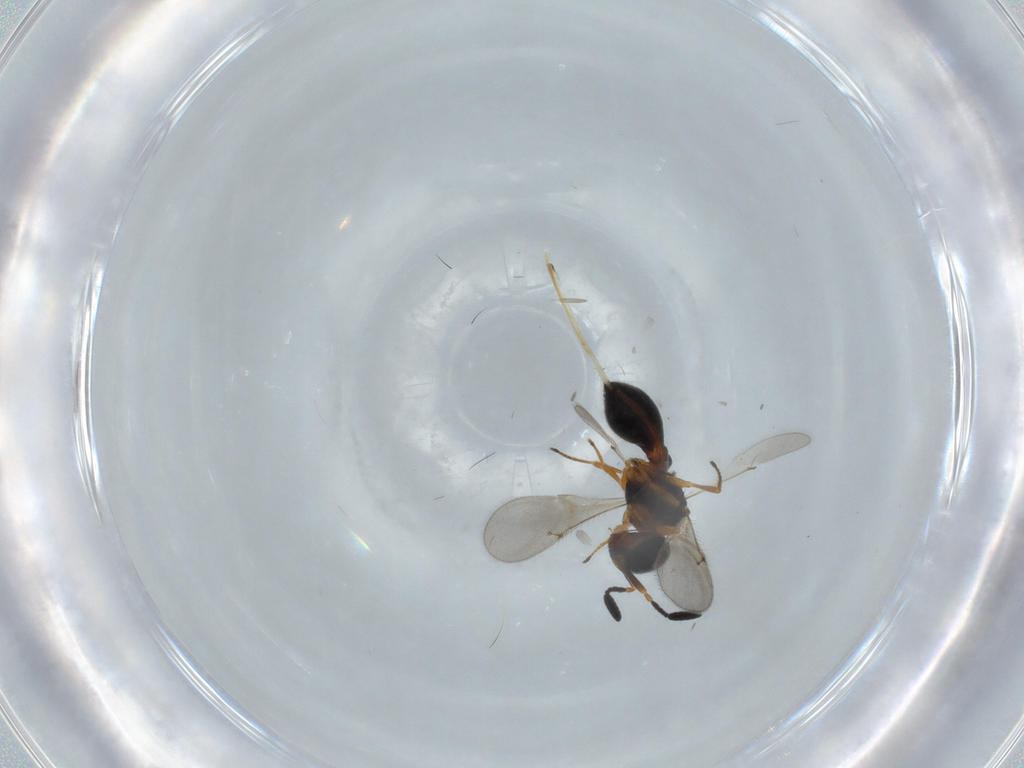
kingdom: Animalia
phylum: Arthropoda
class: Insecta
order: Hymenoptera
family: Scelionidae
